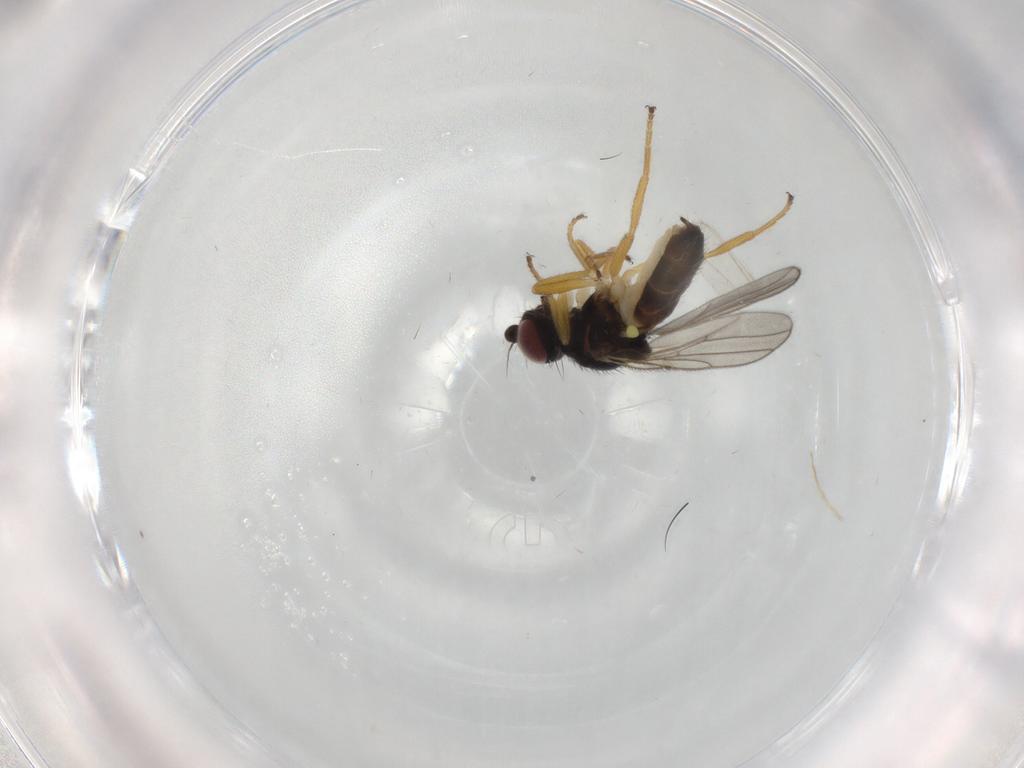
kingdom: Animalia
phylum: Arthropoda
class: Insecta
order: Diptera
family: Chloropidae
